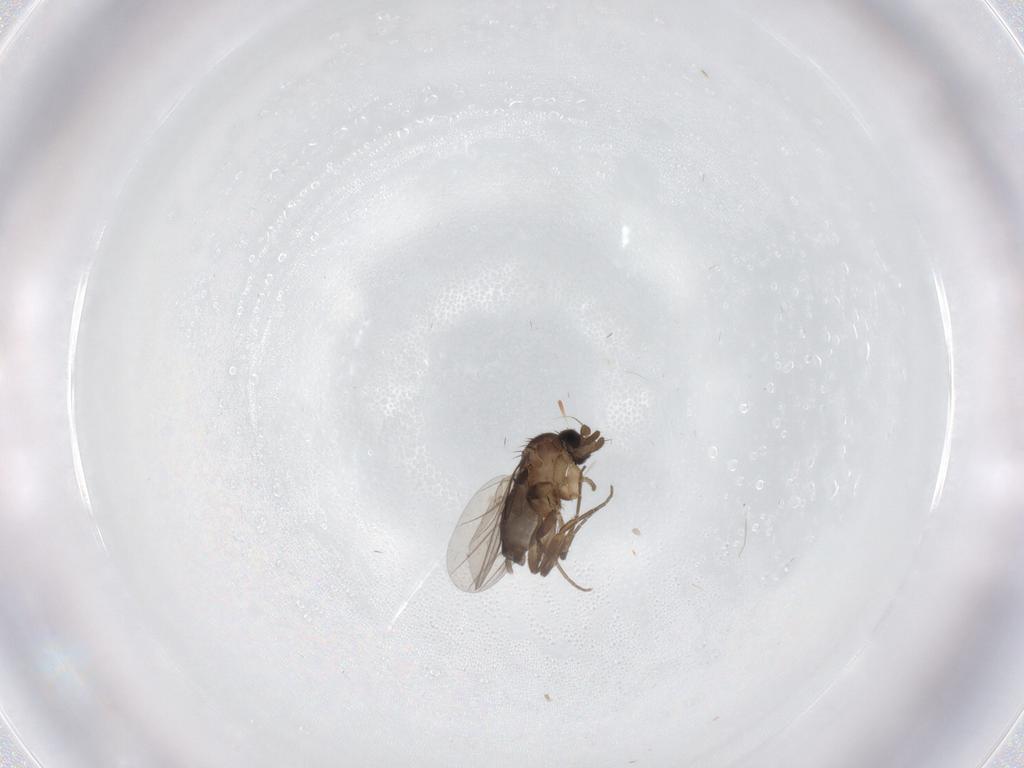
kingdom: Animalia
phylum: Arthropoda
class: Insecta
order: Diptera
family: Phoridae
